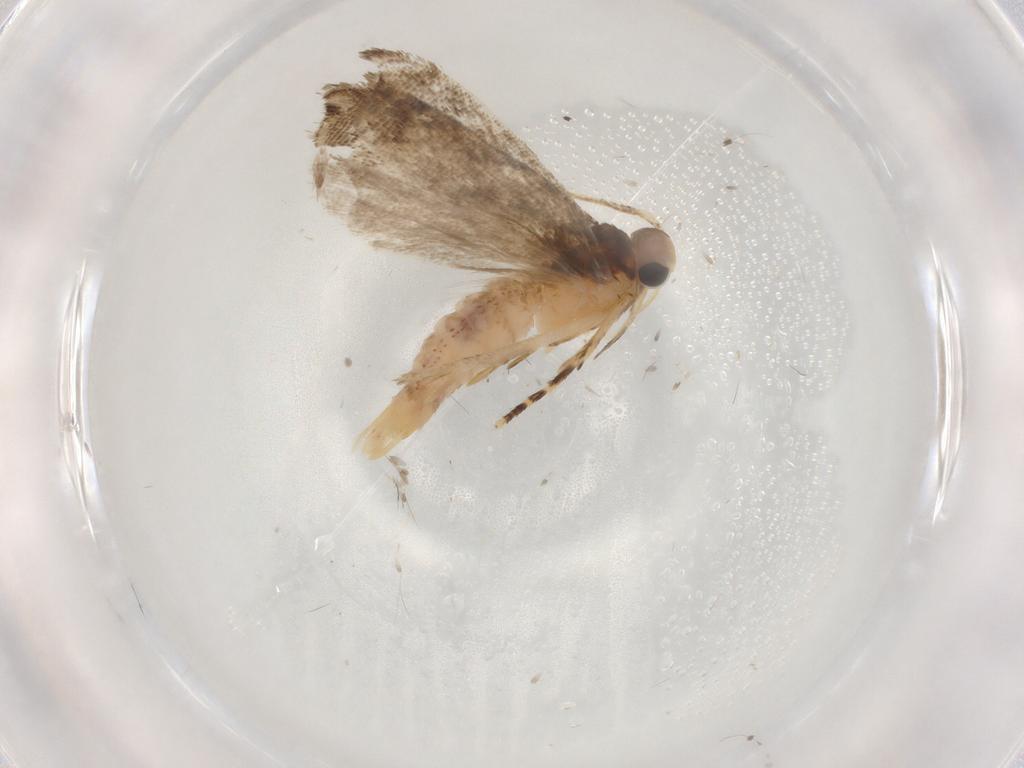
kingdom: Animalia
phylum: Arthropoda
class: Insecta
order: Lepidoptera
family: Bedelliidae
